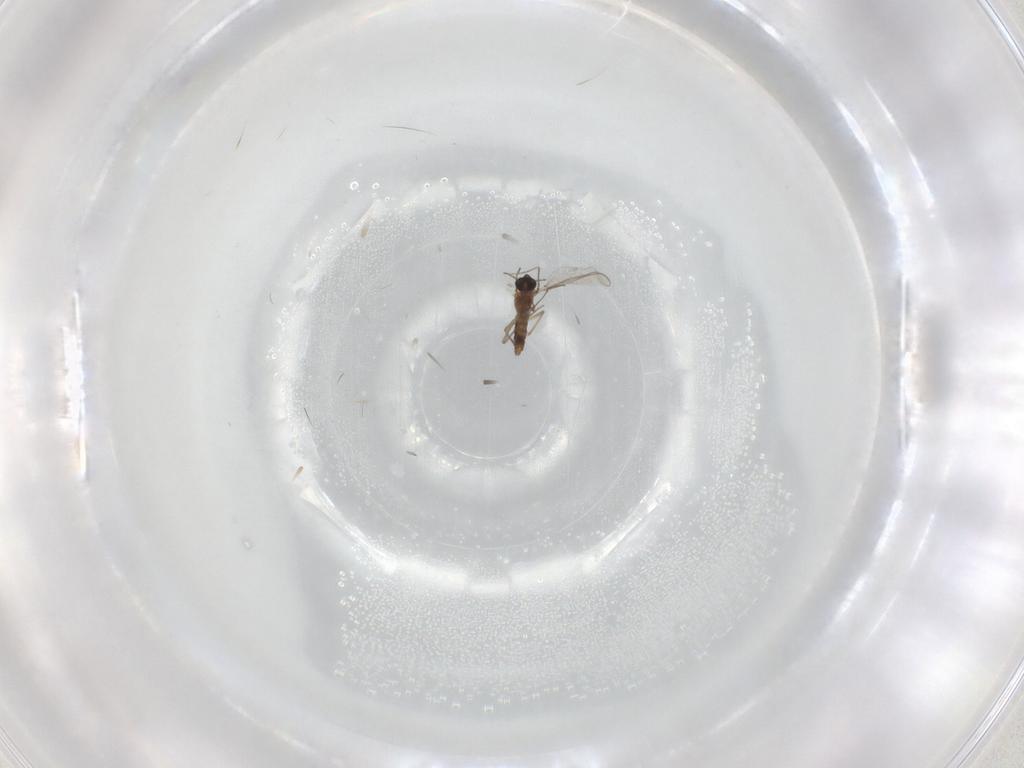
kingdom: Animalia
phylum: Arthropoda
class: Insecta
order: Diptera
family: Chironomidae
